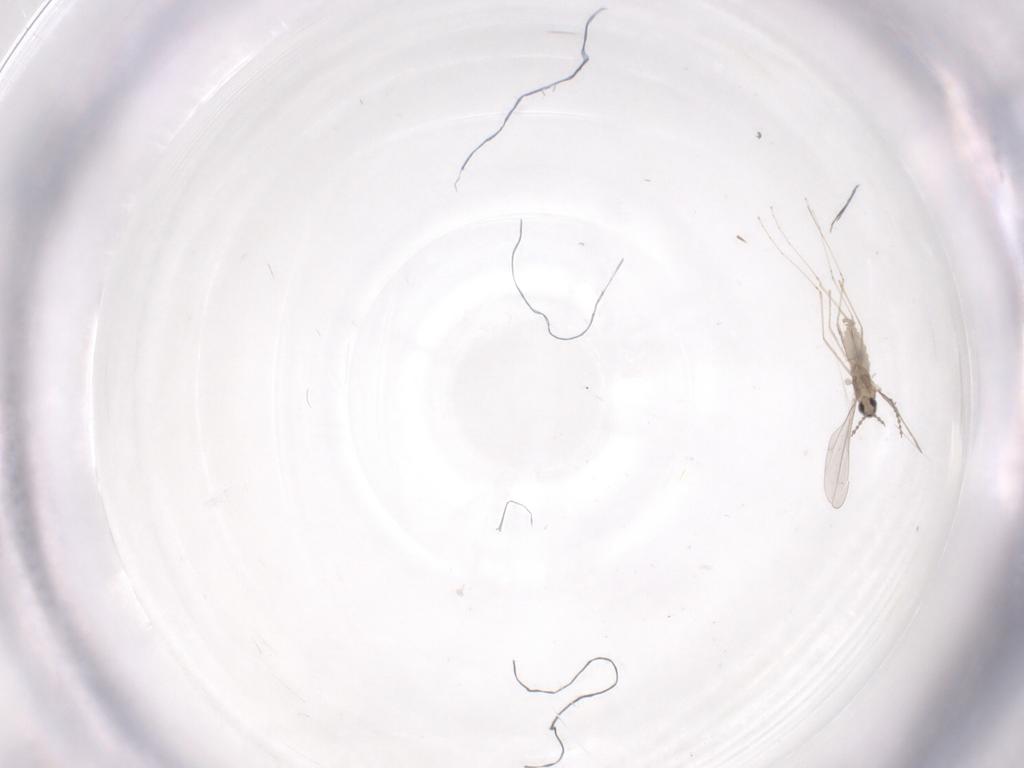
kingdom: Animalia
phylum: Arthropoda
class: Insecta
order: Diptera
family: Cecidomyiidae
